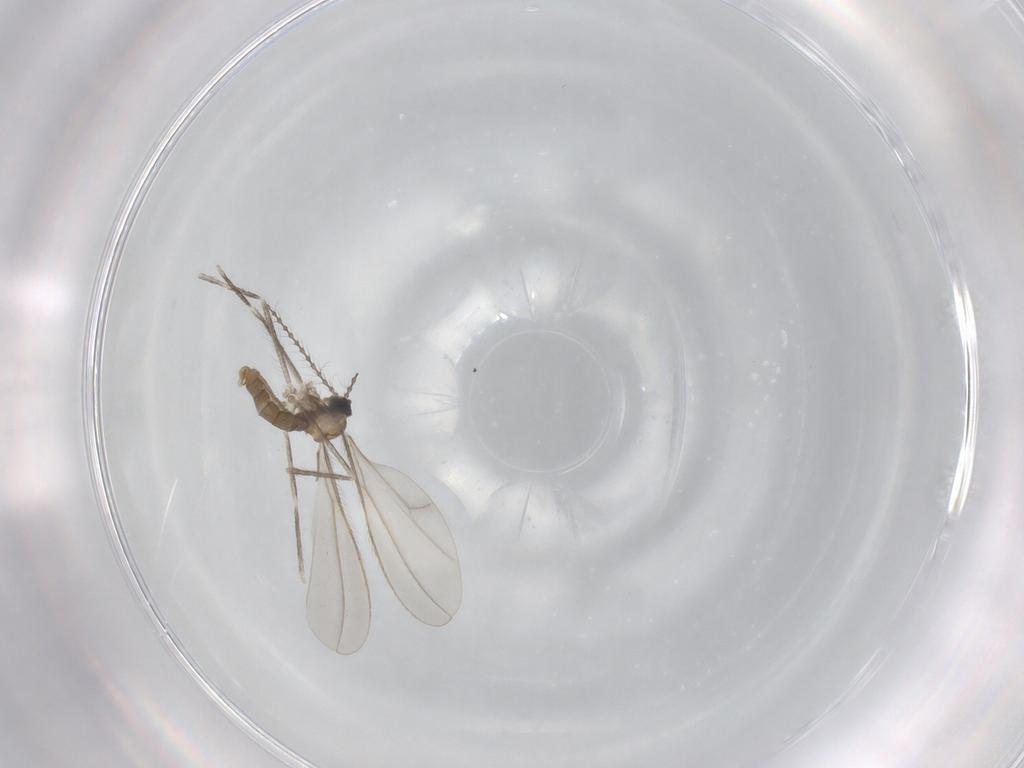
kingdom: Animalia
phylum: Arthropoda
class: Insecta
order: Diptera
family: Cecidomyiidae
